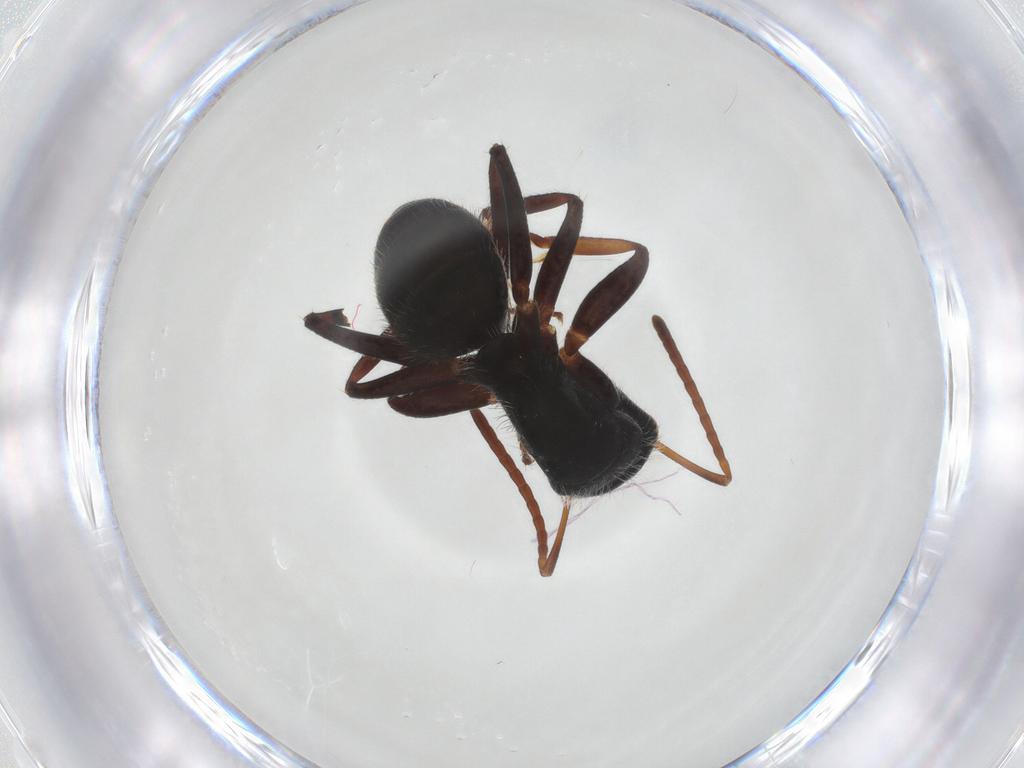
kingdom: Animalia
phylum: Arthropoda
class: Insecta
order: Hymenoptera
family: Formicidae
